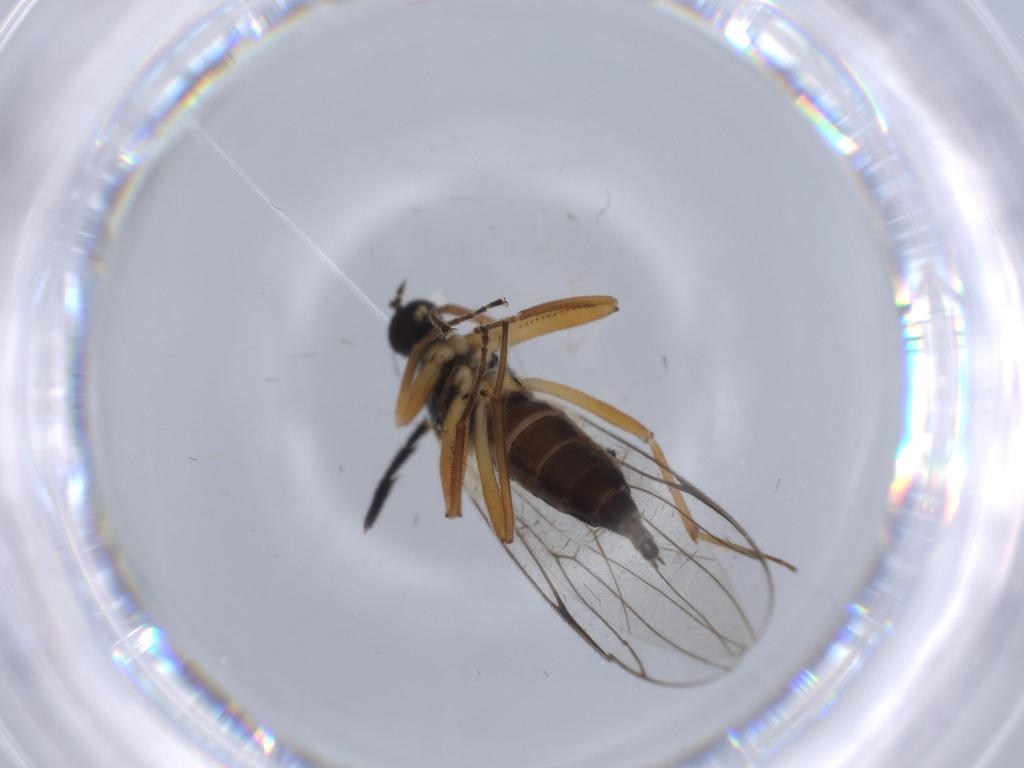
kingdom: Animalia
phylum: Arthropoda
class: Insecta
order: Diptera
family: Hybotidae
